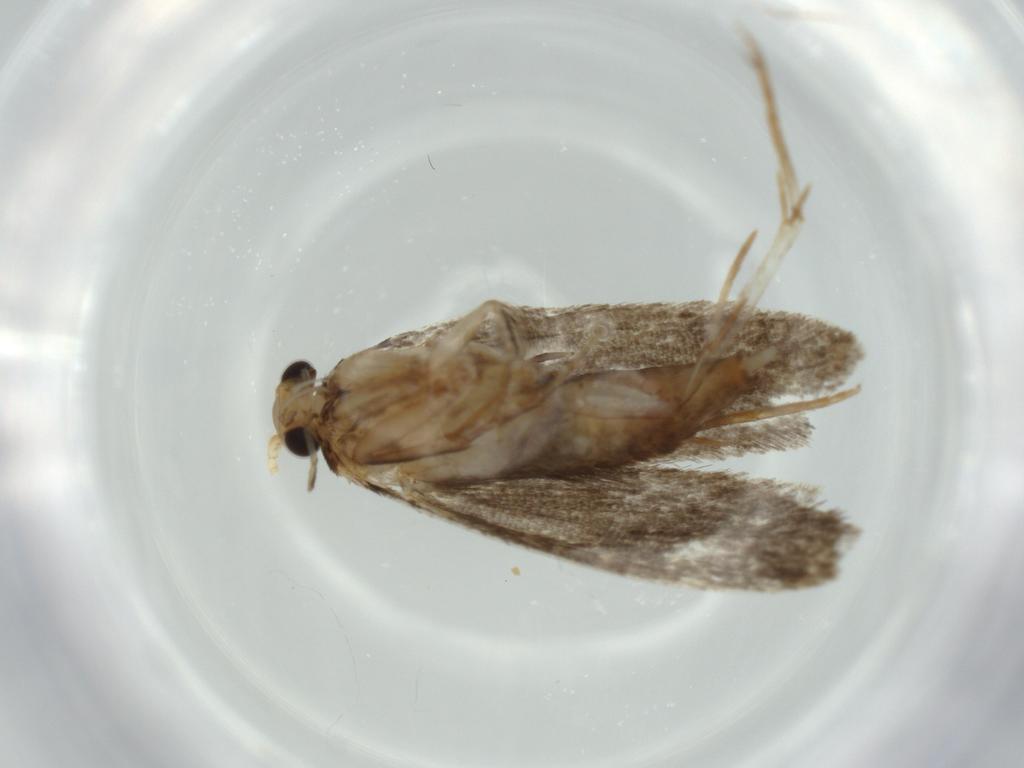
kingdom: Animalia
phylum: Arthropoda
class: Insecta
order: Lepidoptera
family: Tineidae
